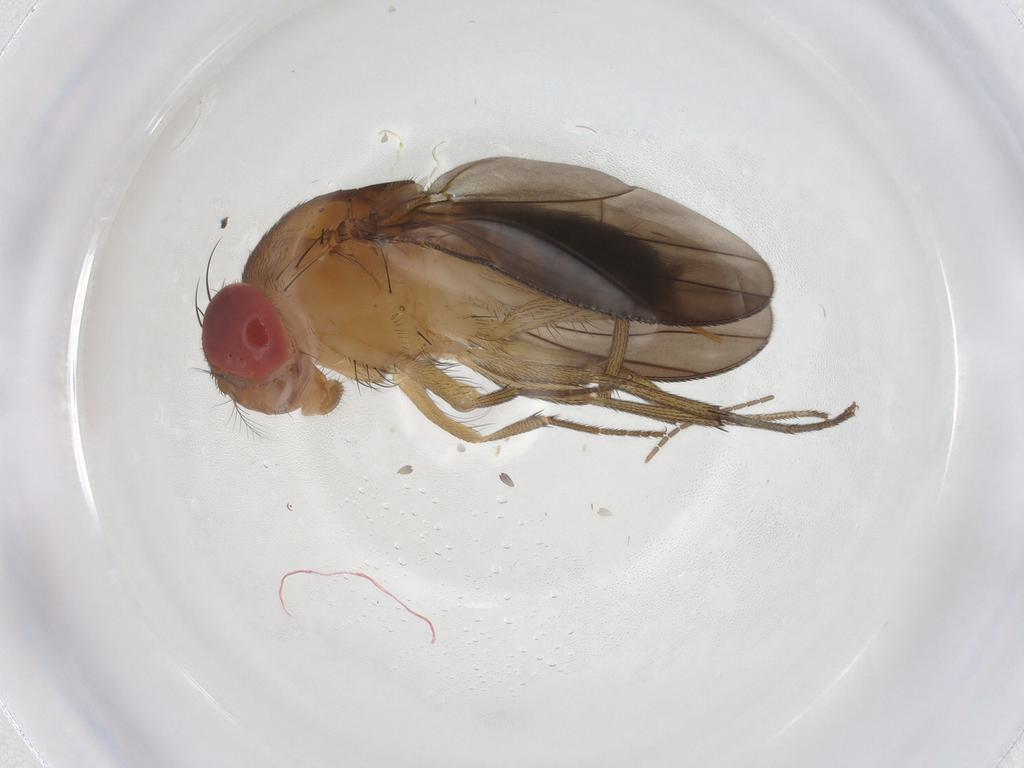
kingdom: Animalia
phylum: Arthropoda
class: Insecta
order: Diptera
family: Drosophilidae
